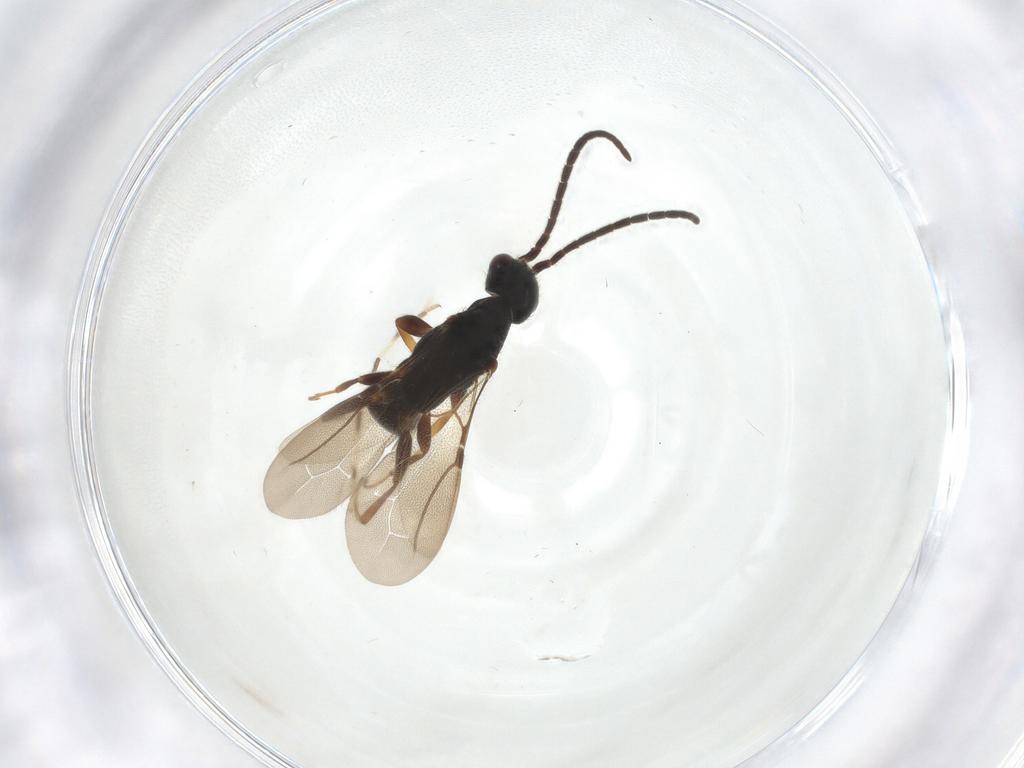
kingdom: Animalia
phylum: Arthropoda
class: Insecta
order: Hymenoptera
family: Bethylidae
